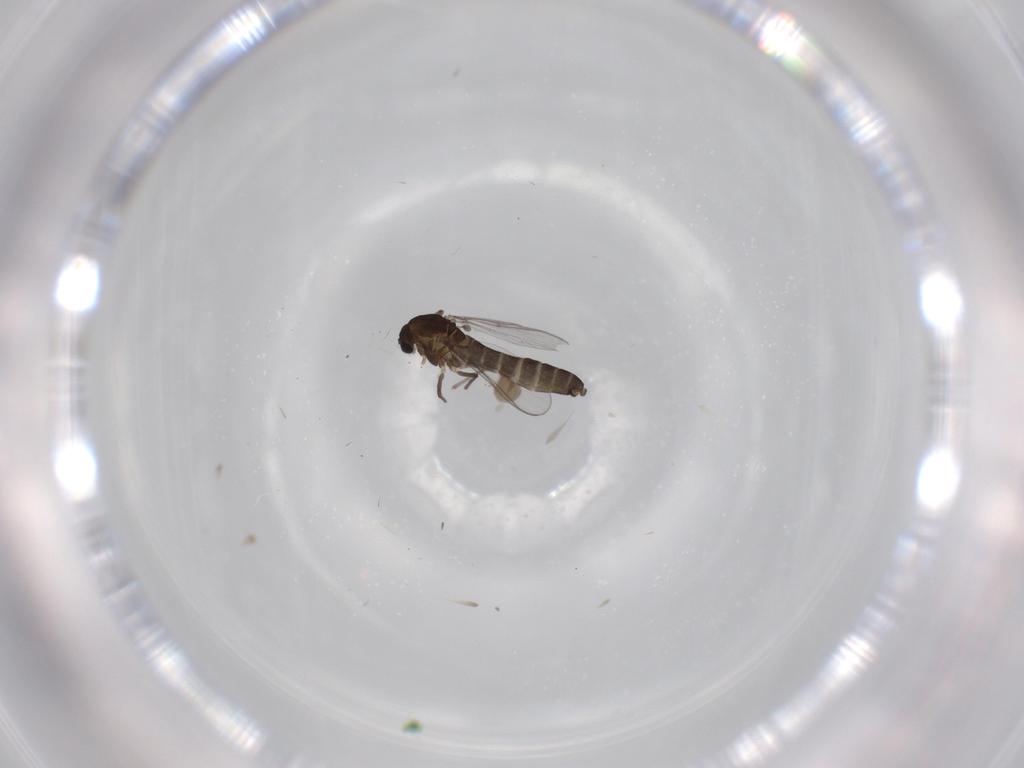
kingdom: Animalia
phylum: Arthropoda
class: Insecta
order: Diptera
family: Chironomidae
